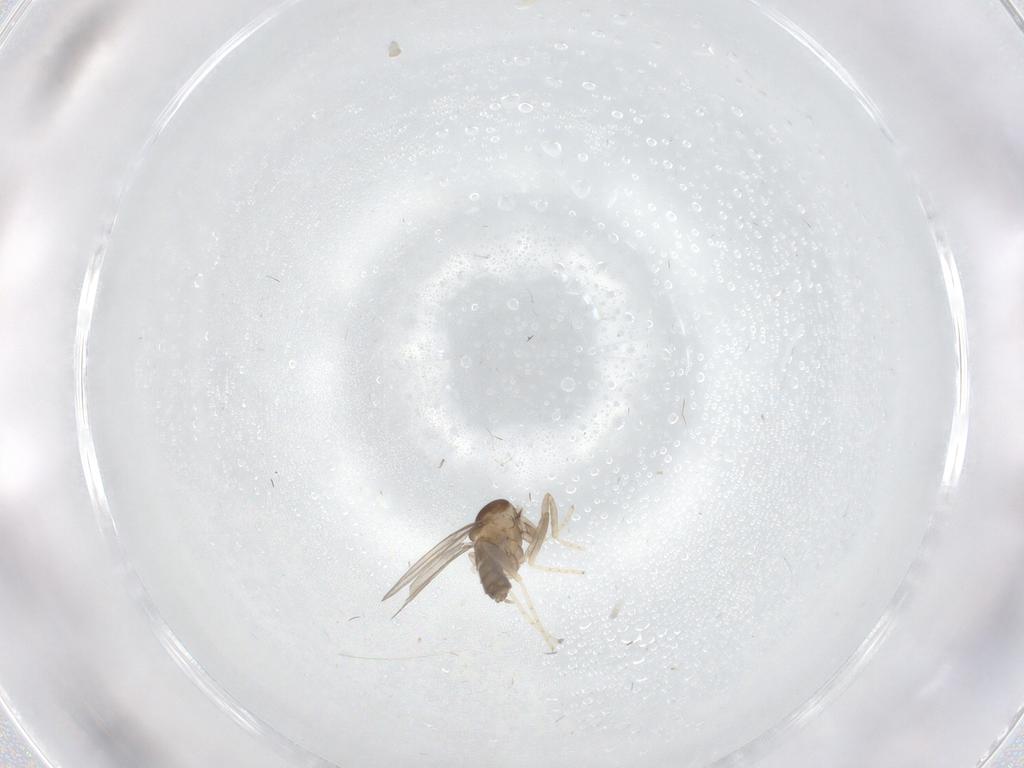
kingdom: Animalia
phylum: Arthropoda
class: Insecta
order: Diptera
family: Cecidomyiidae
